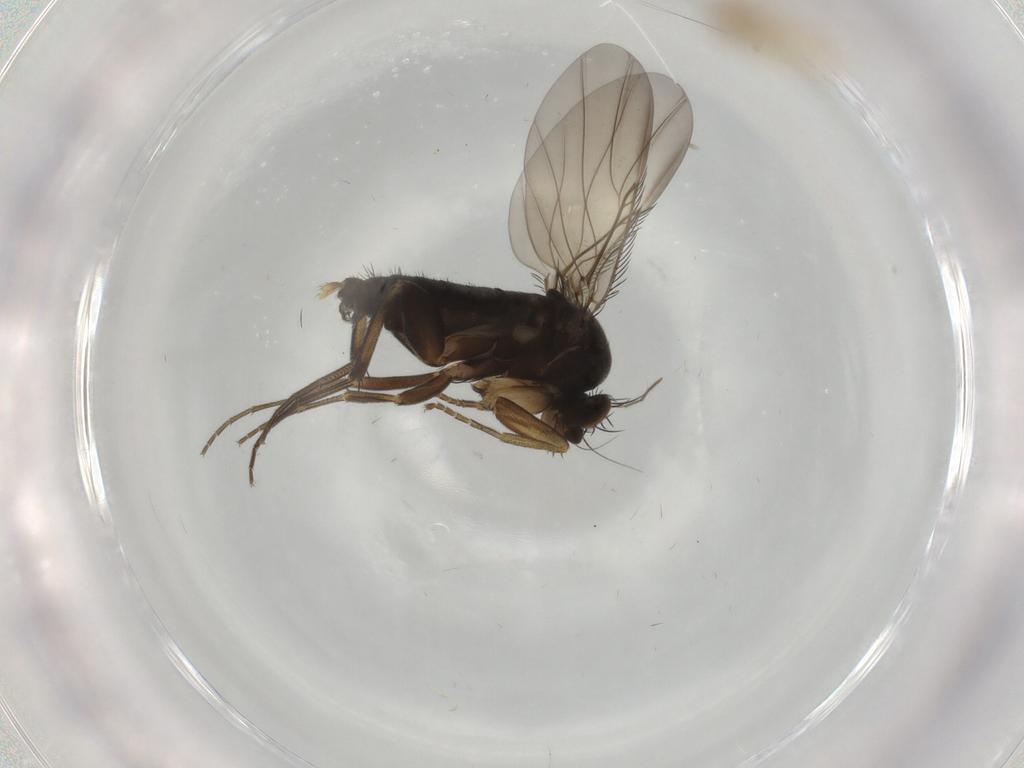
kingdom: Animalia
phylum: Arthropoda
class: Insecta
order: Diptera
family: Phoridae
